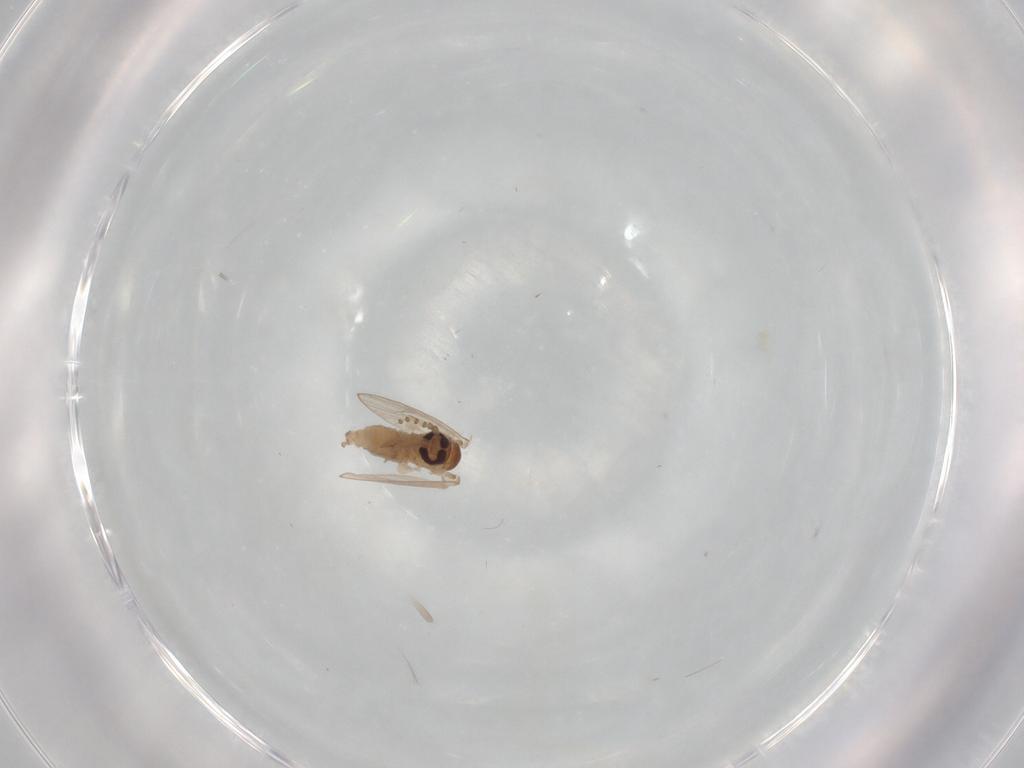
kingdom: Animalia
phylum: Arthropoda
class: Insecta
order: Diptera
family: Psychodidae
